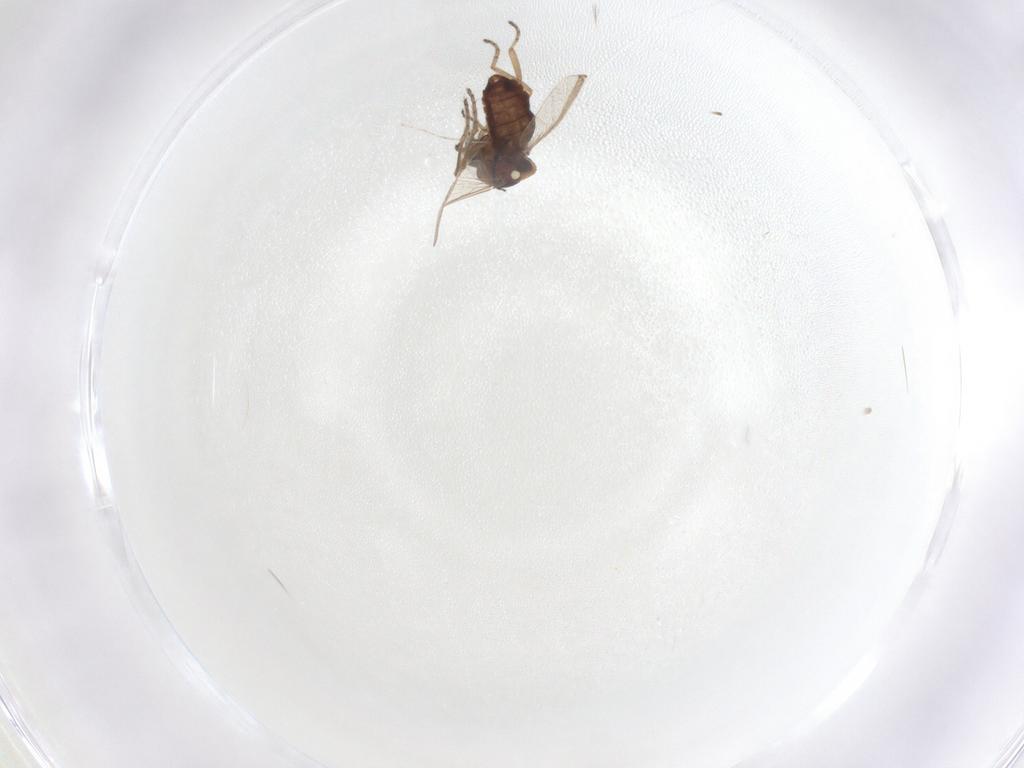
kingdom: Animalia
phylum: Arthropoda
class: Insecta
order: Diptera
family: Ceratopogonidae
